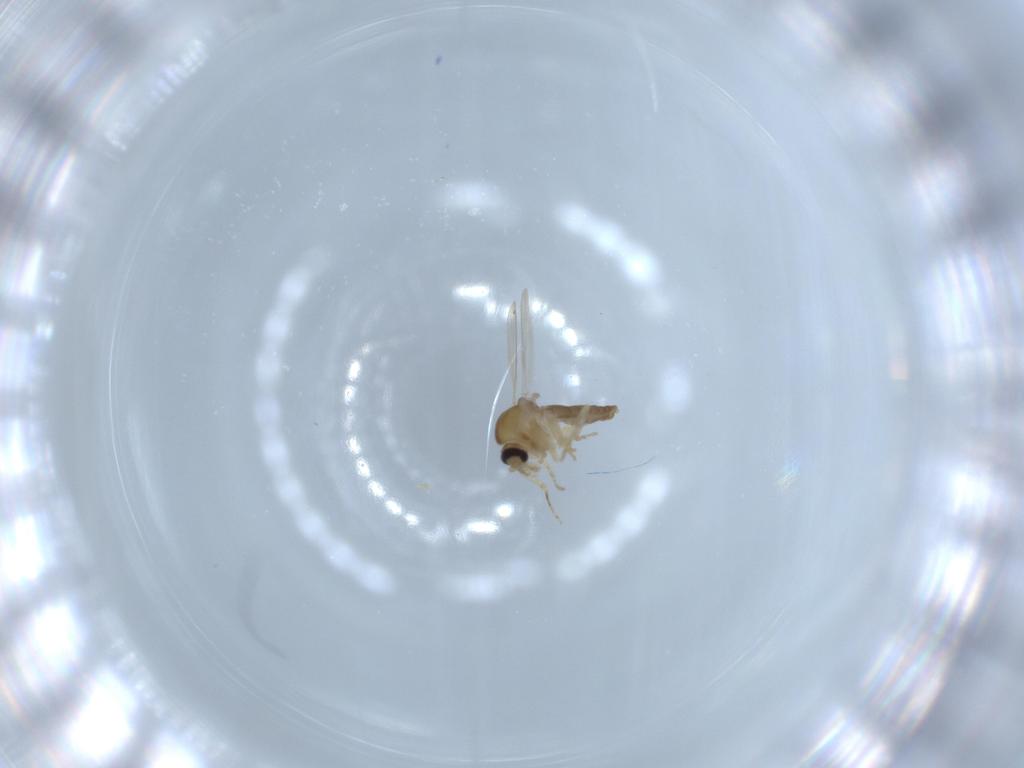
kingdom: Animalia
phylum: Arthropoda
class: Insecta
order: Diptera
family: Ceratopogonidae
